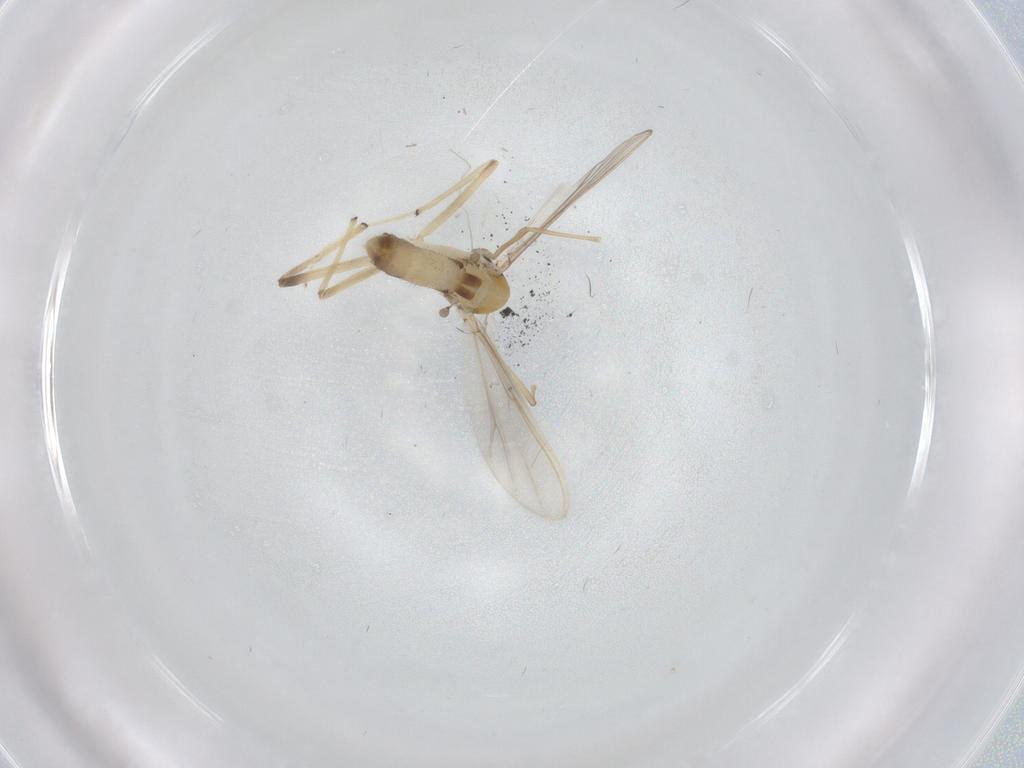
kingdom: Animalia
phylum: Arthropoda
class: Insecta
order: Diptera
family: Chironomidae
